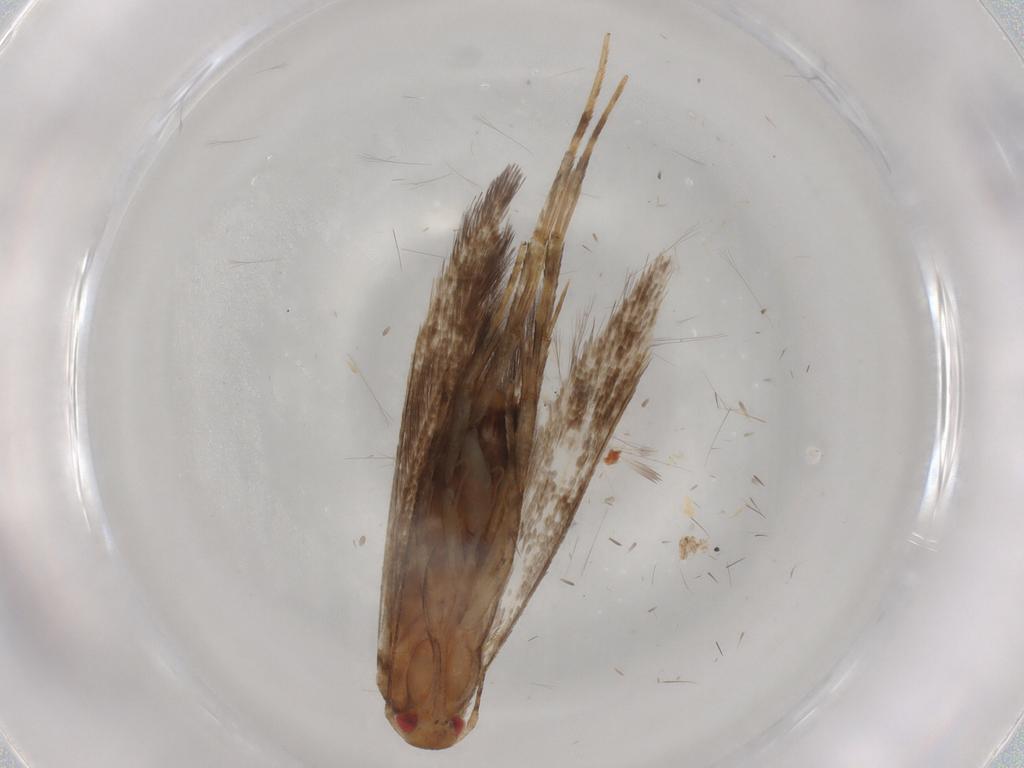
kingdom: Animalia
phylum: Arthropoda
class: Insecta
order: Lepidoptera
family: Cosmopterigidae
